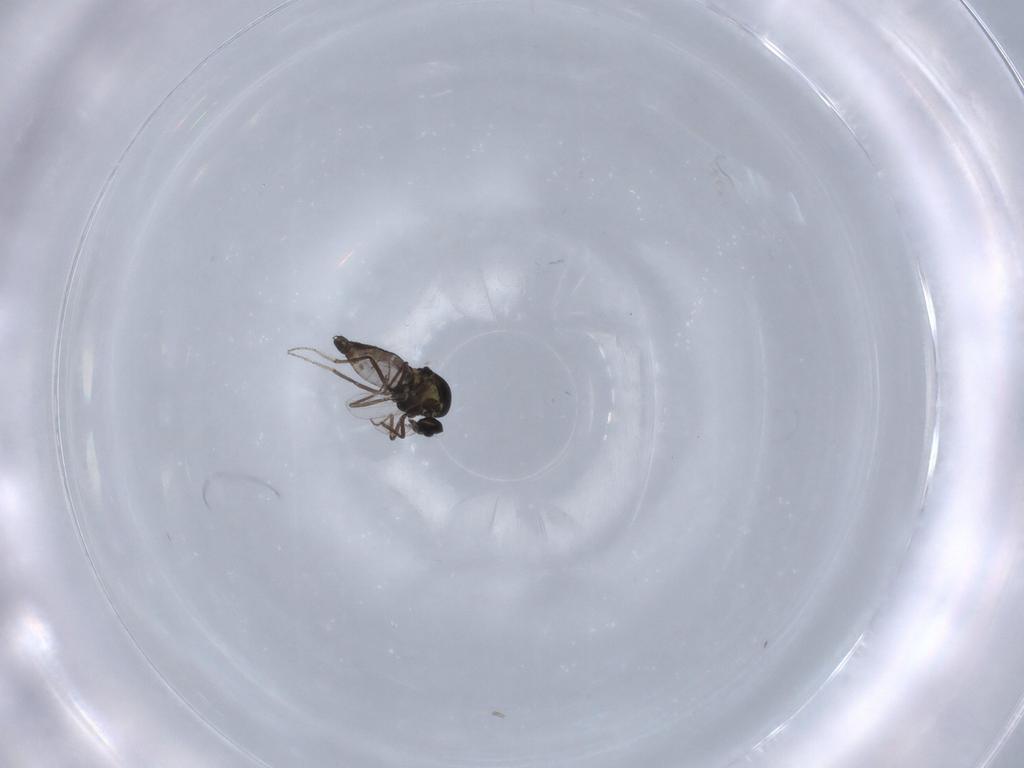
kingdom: Animalia
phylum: Arthropoda
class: Insecta
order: Diptera
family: Ceratopogonidae
